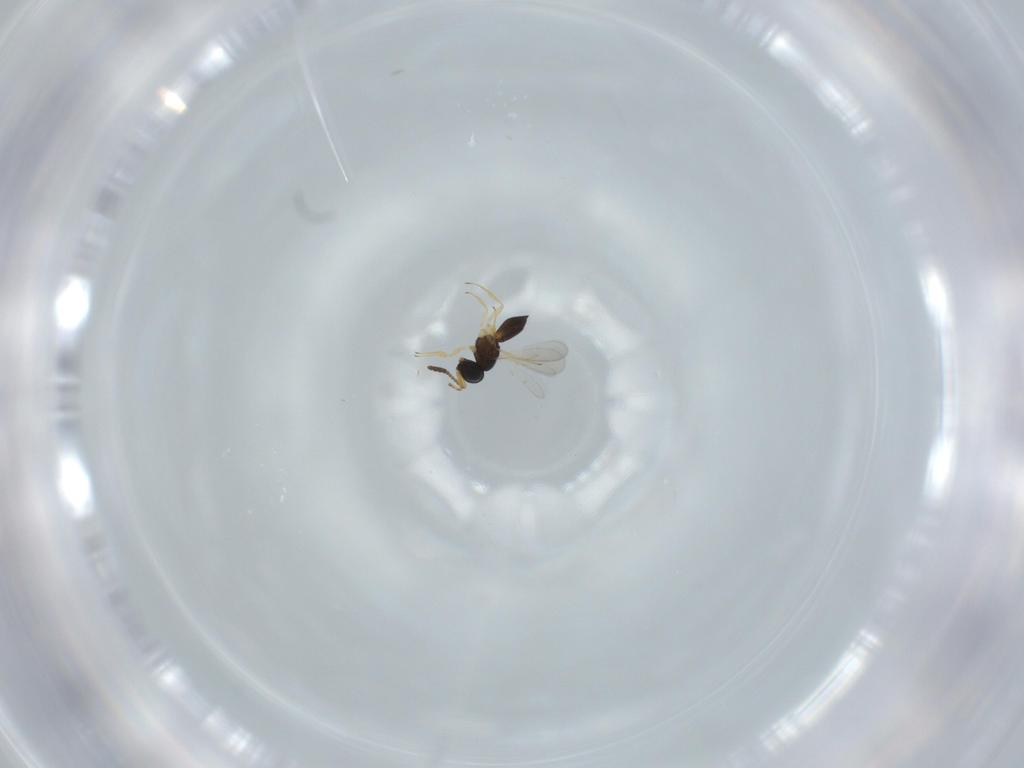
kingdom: Animalia
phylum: Arthropoda
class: Insecta
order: Hymenoptera
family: Scelionidae
